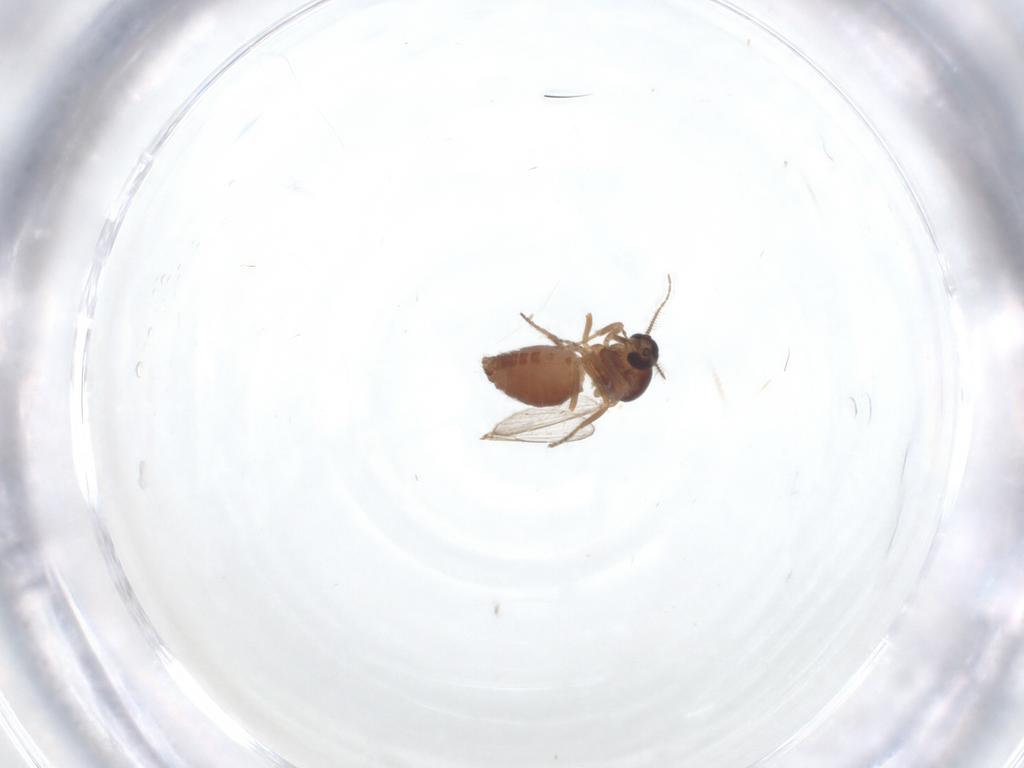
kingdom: Animalia
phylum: Arthropoda
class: Insecta
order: Diptera
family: Ceratopogonidae
